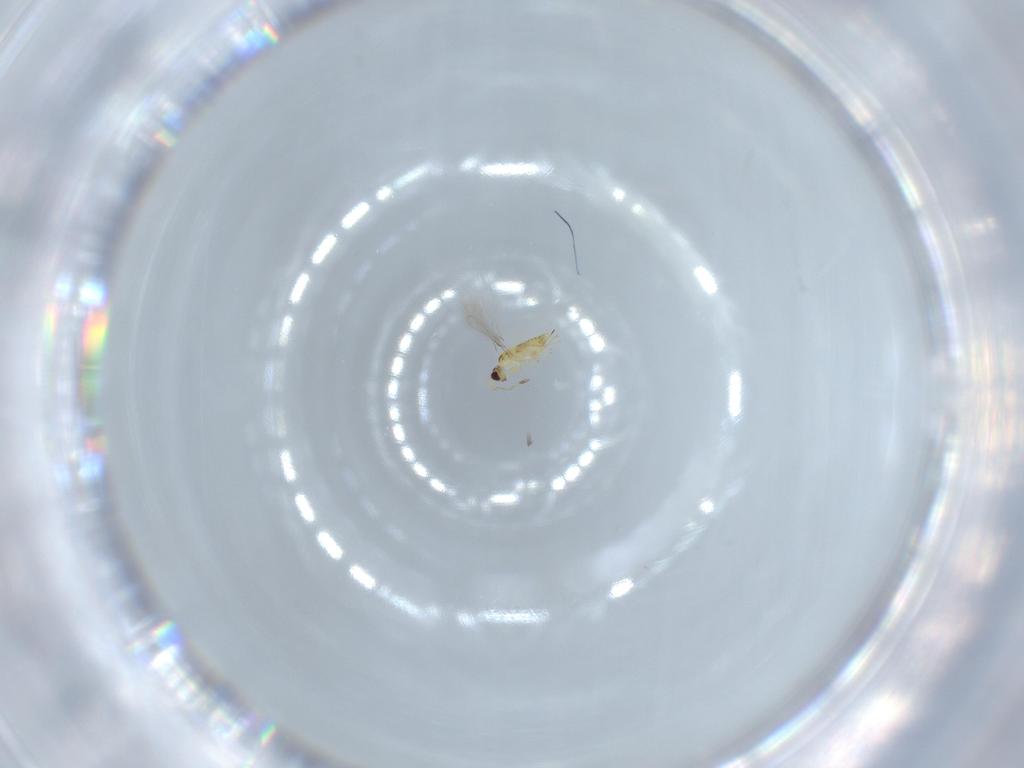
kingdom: Animalia
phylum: Arthropoda
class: Insecta
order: Hymenoptera
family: Mymaridae
